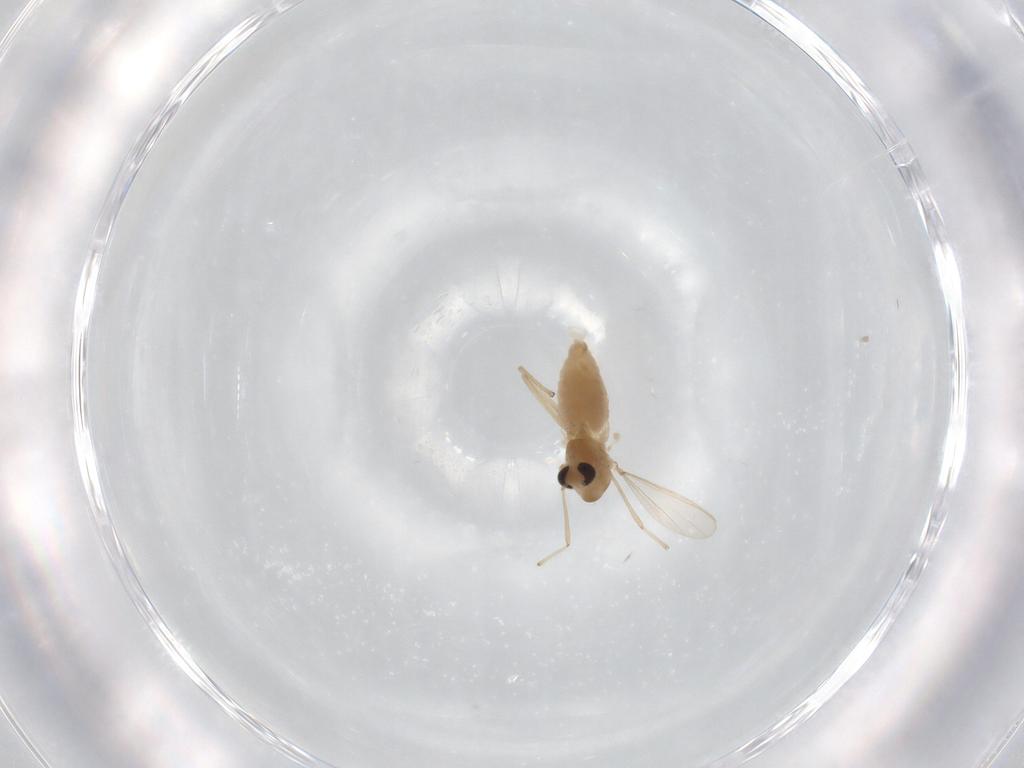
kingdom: Animalia
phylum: Arthropoda
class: Insecta
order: Diptera
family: Chironomidae
